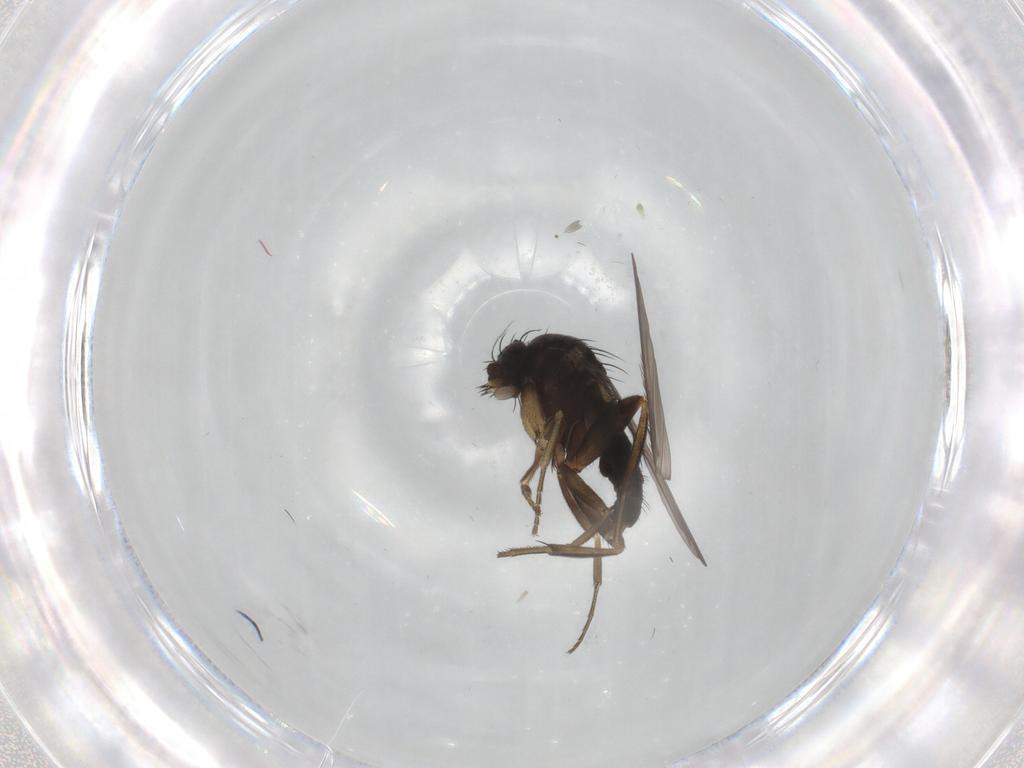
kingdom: Animalia
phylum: Arthropoda
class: Insecta
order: Diptera
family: Phoridae
